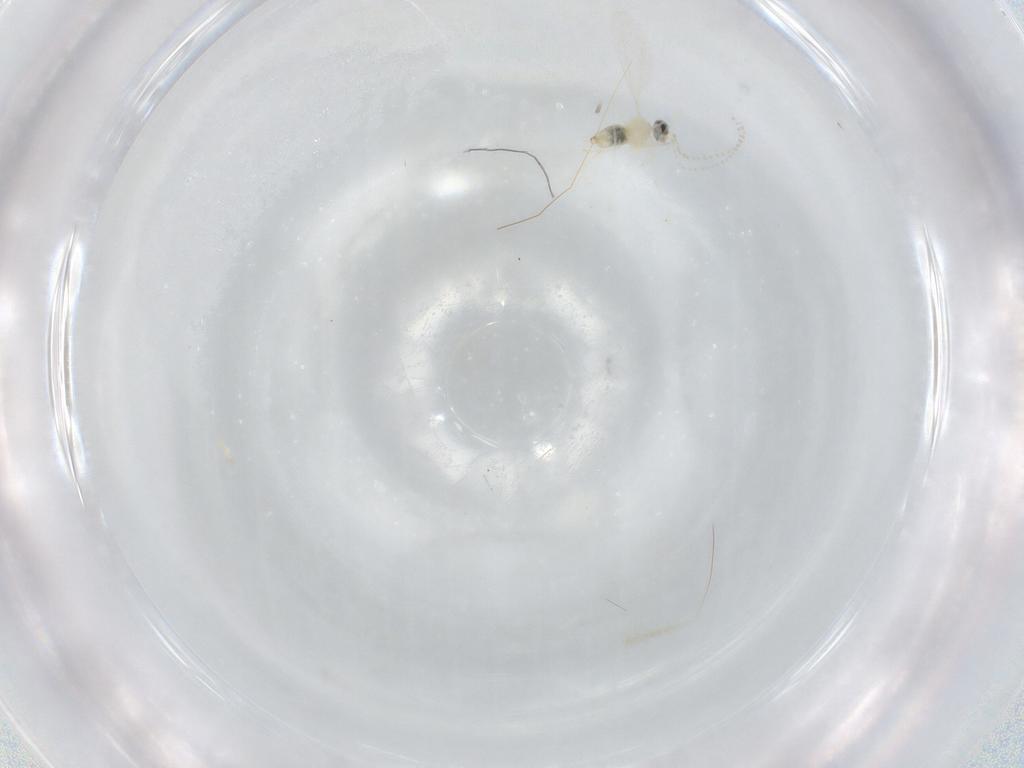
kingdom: Animalia
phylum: Arthropoda
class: Insecta
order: Diptera
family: Cecidomyiidae
